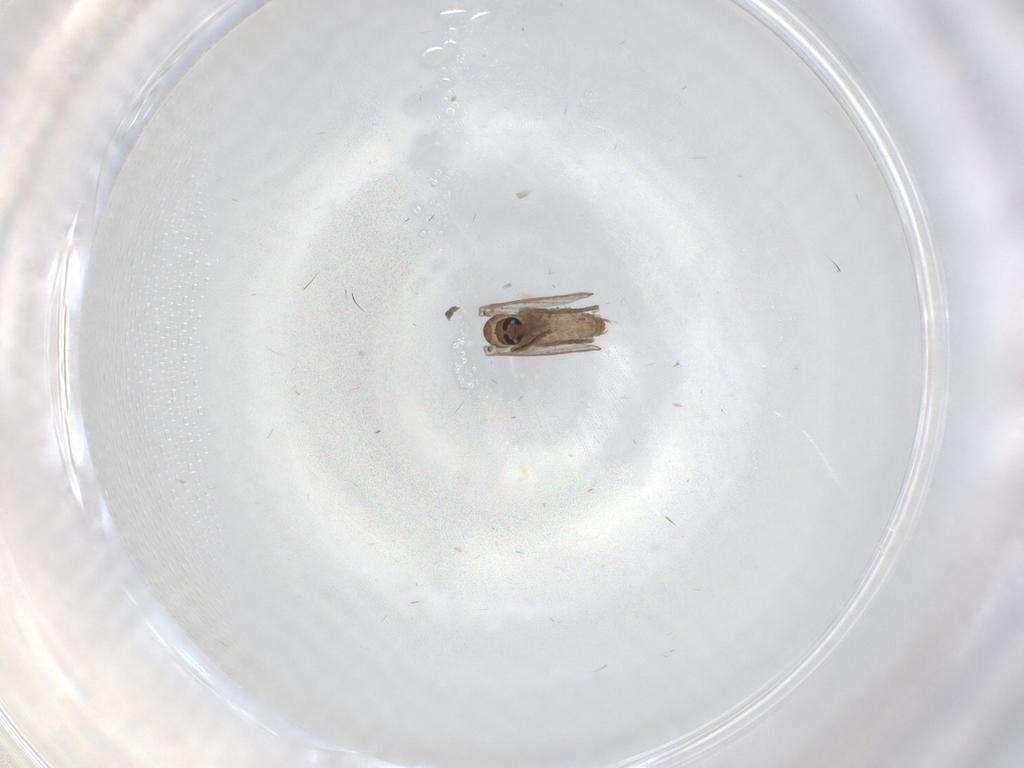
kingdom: Animalia
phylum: Arthropoda
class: Insecta
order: Diptera
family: Psychodidae
